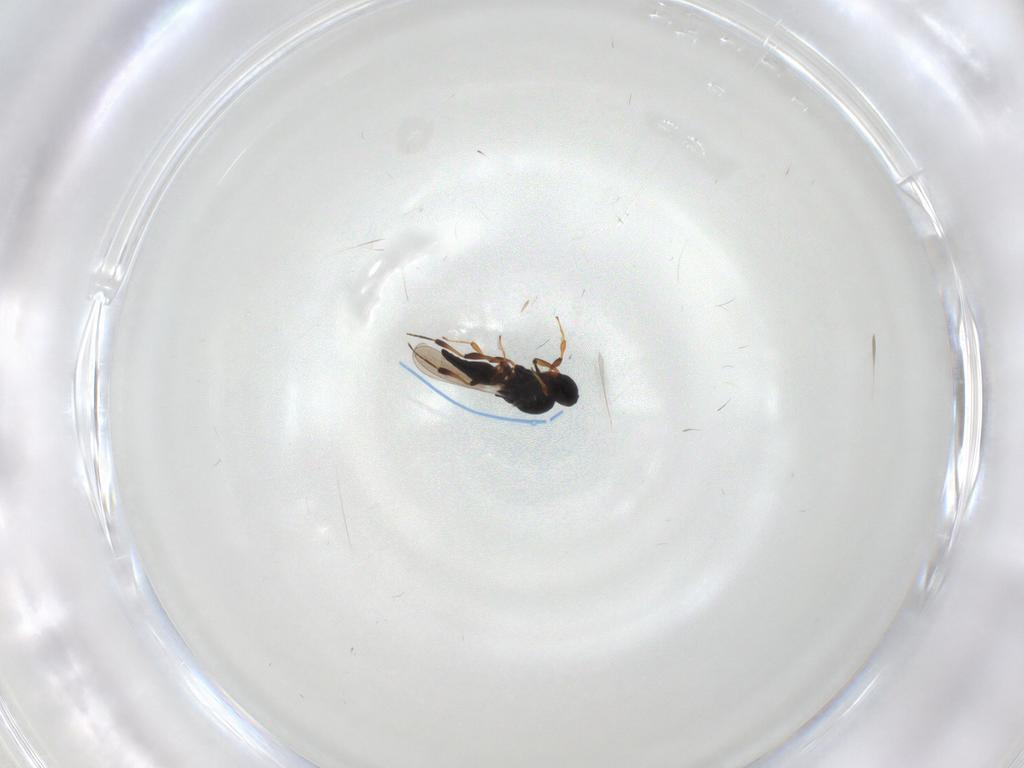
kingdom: Animalia
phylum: Arthropoda
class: Insecta
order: Hymenoptera
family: Platygastridae
